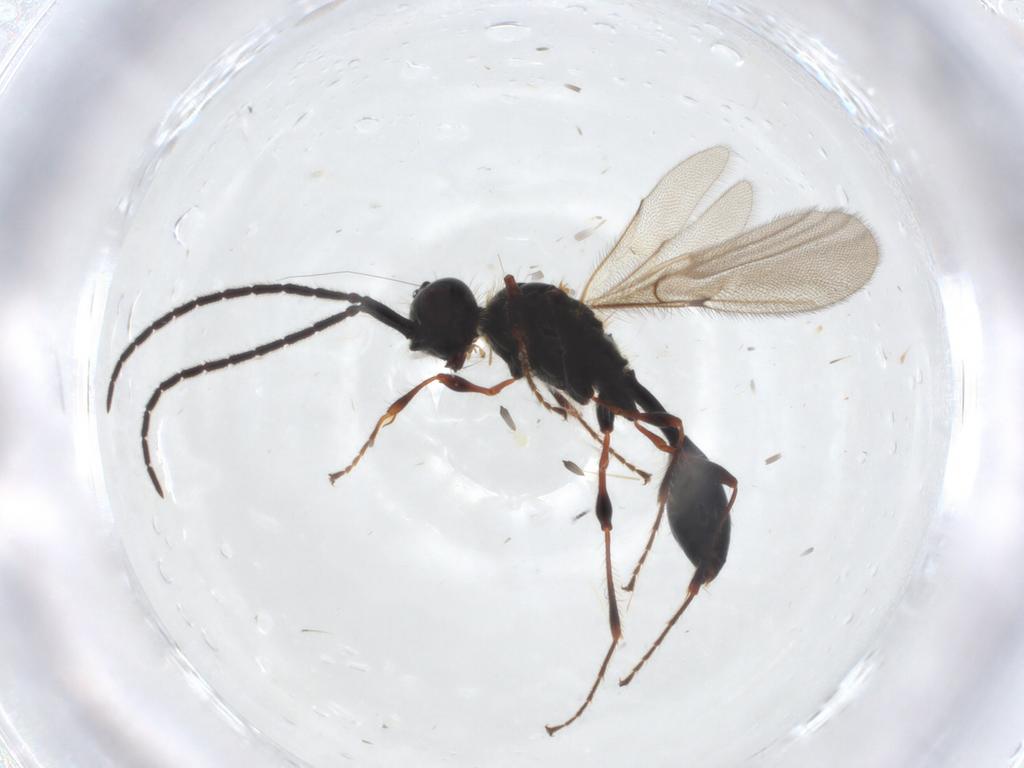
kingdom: Animalia
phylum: Arthropoda
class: Insecta
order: Hymenoptera
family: Diapriidae
